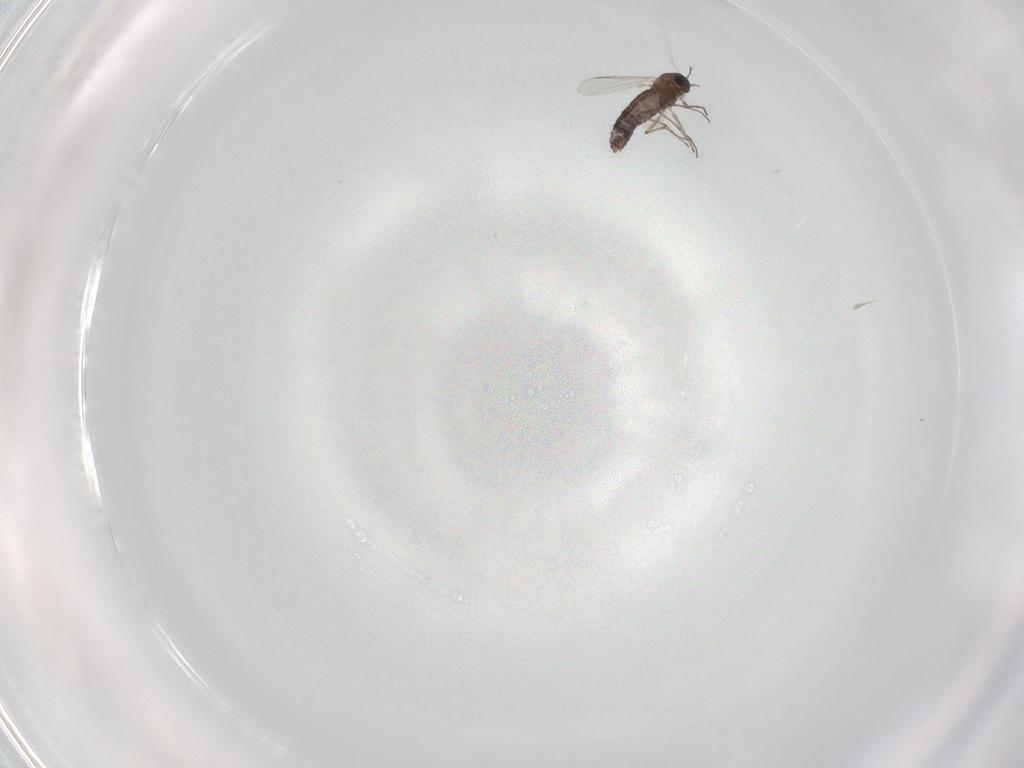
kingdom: Animalia
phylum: Arthropoda
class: Insecta
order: Diptera
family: Chironomidae
